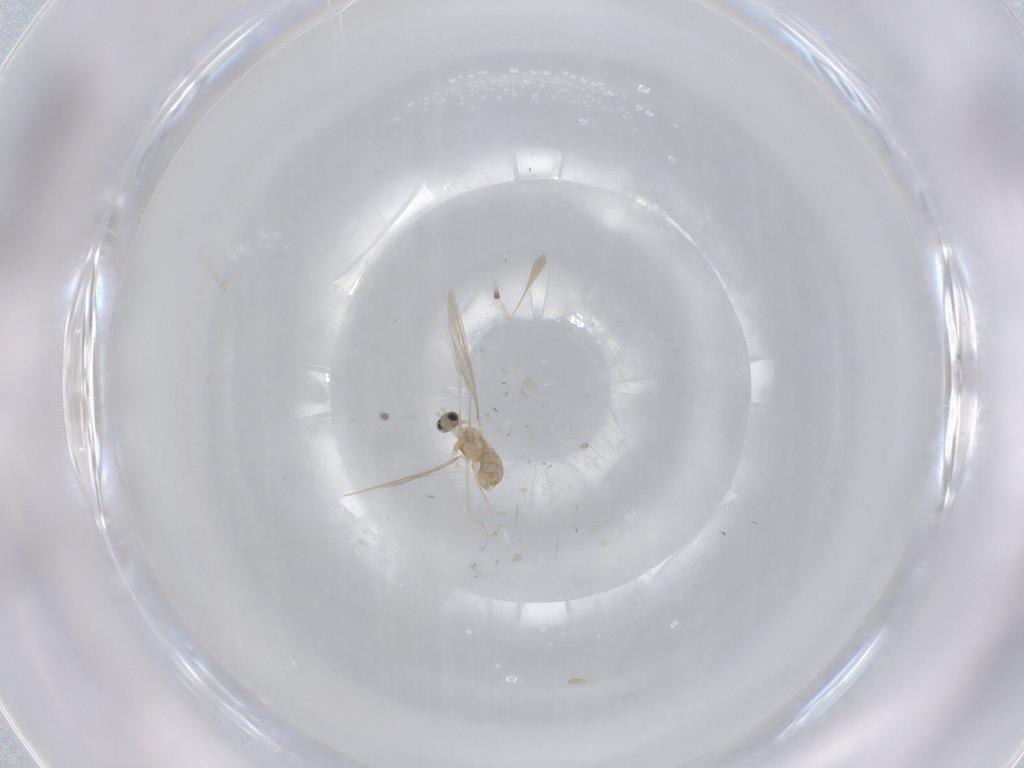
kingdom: Animalia
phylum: Arthropoda
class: Insecta
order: Diptera
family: Cecidomyiidae
